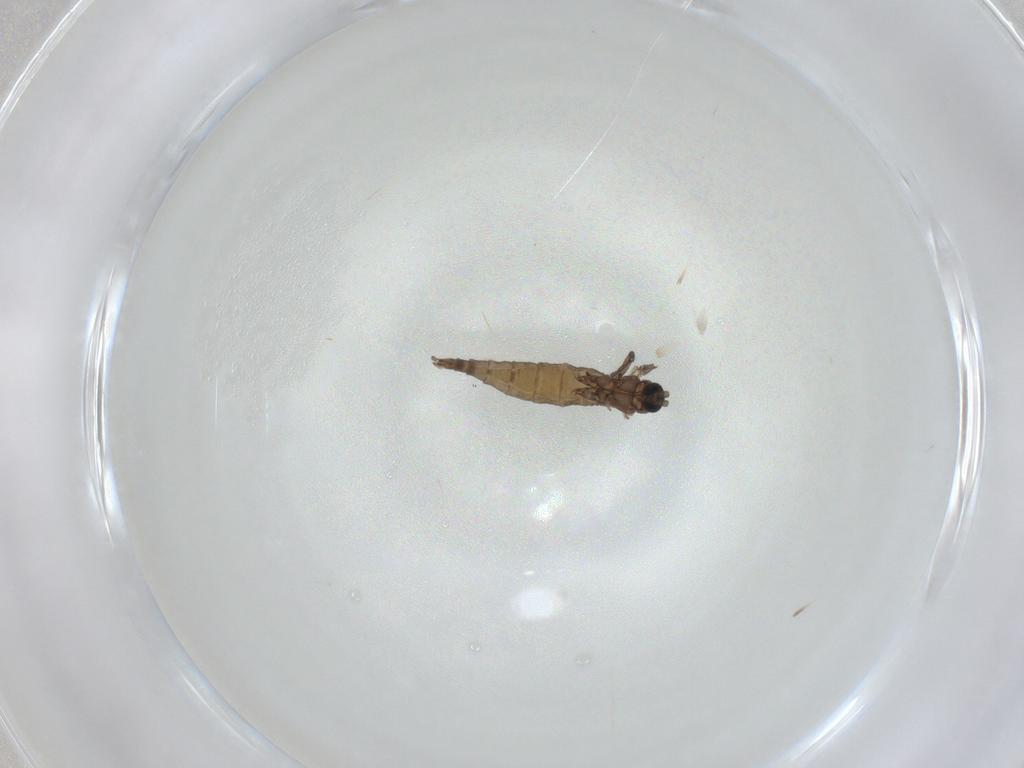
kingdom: Animalia
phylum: Arthropoda
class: Insecta
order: Diptera
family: Sciaridae
